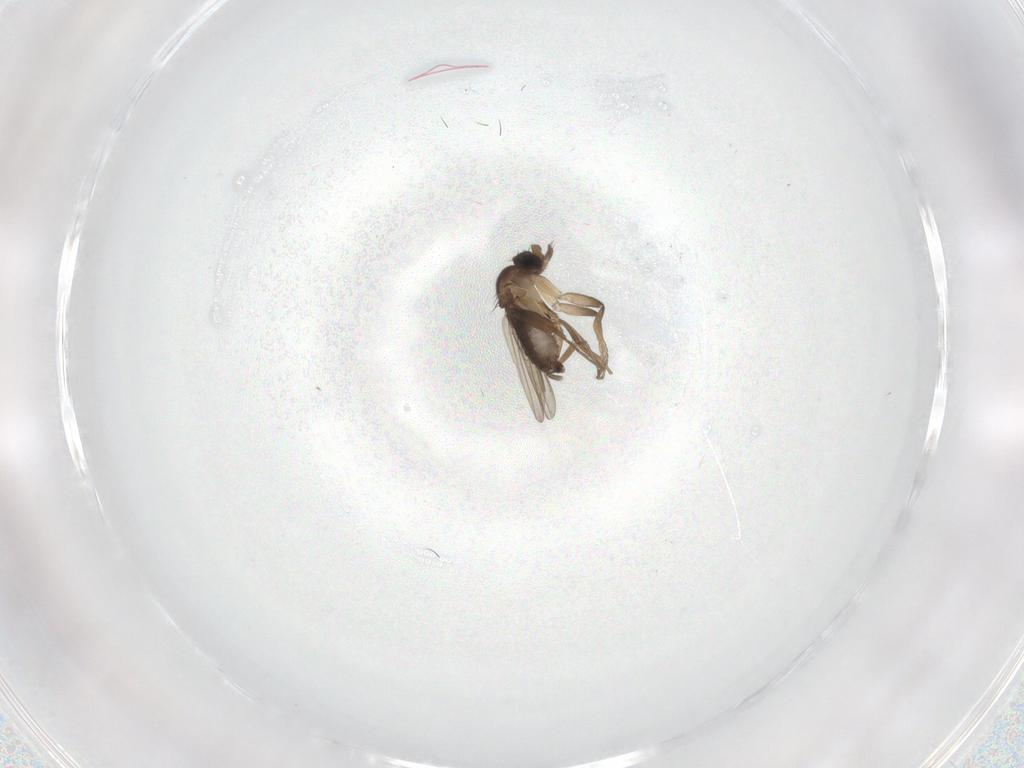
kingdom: Animalia
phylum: Arthropoda
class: Insecta
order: Diptera
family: Phoridae
